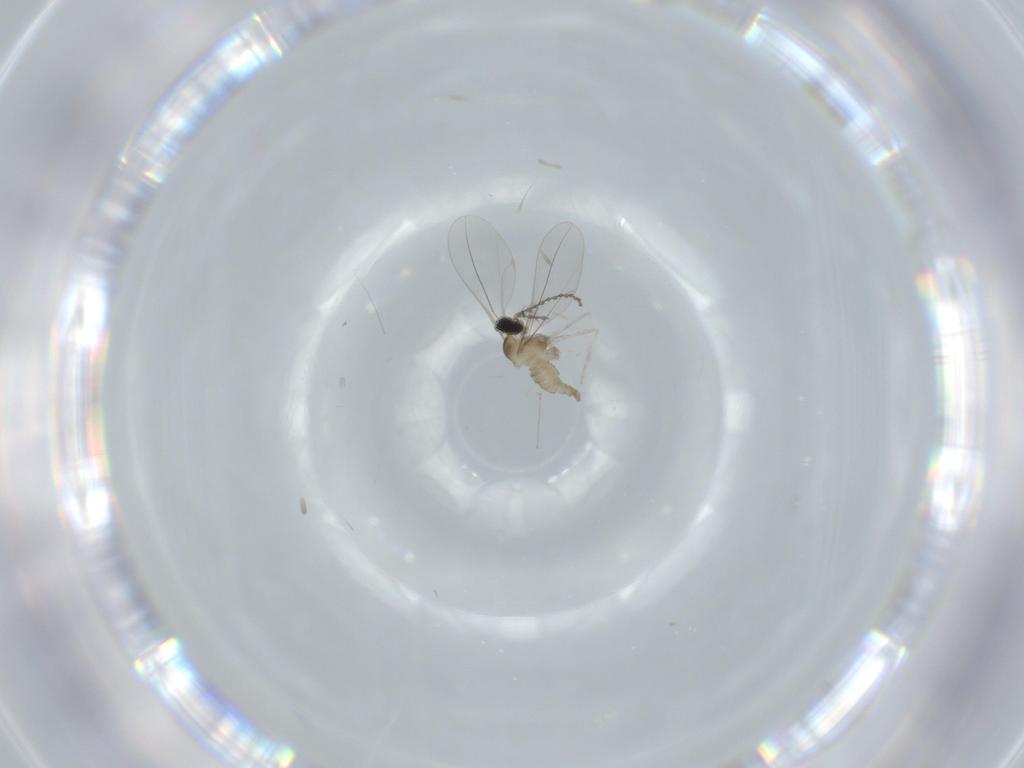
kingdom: Animalia
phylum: Arthropoda
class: Insecta
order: Diptera
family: Cecidomyiidae
